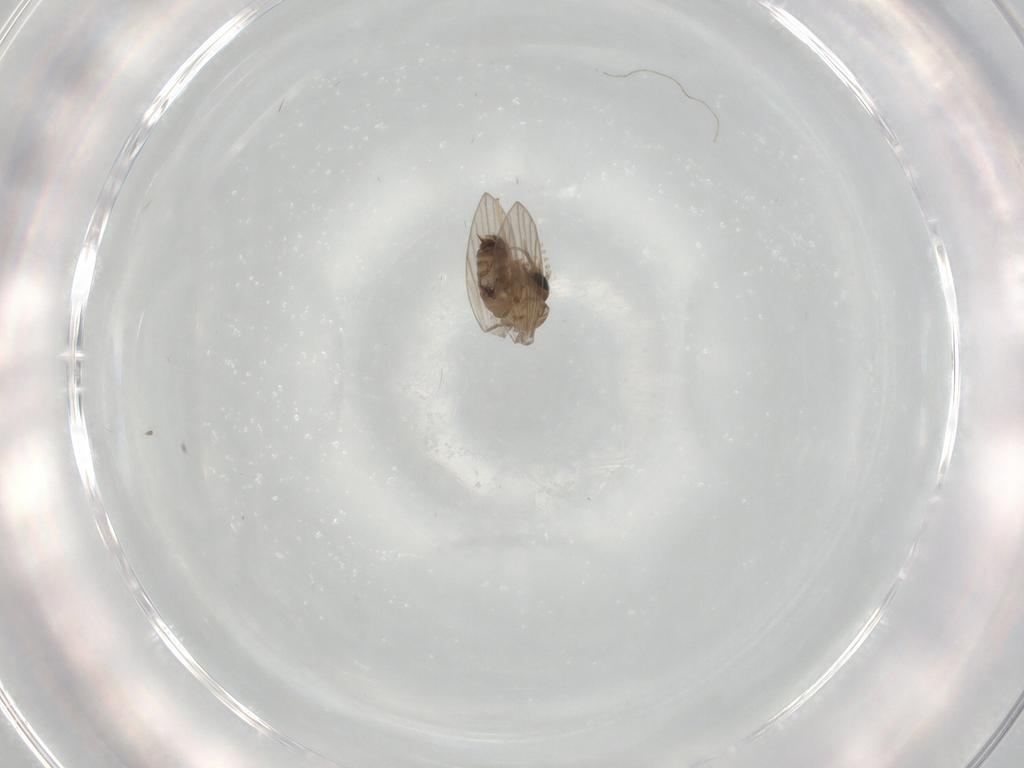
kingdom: Animalia
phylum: Arthropoda
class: Insecta
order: Diptera
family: Psychodidae
